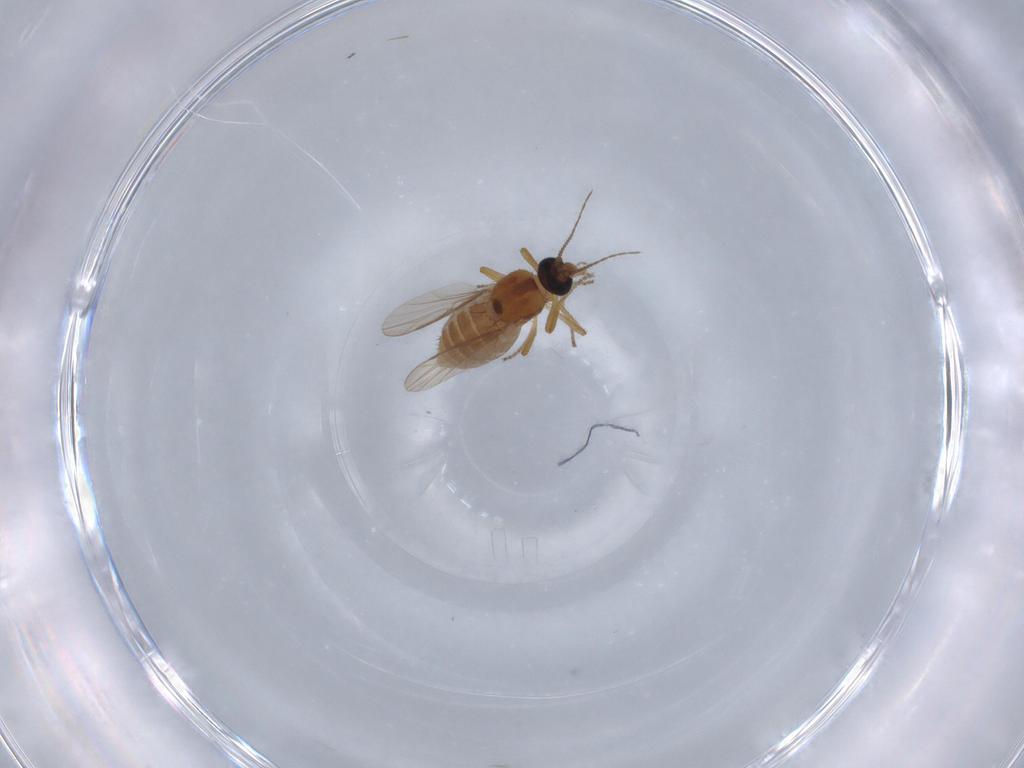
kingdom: Animalia
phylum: Arthropoda
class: Insecta
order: Diptera
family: Ceratopogonidae
